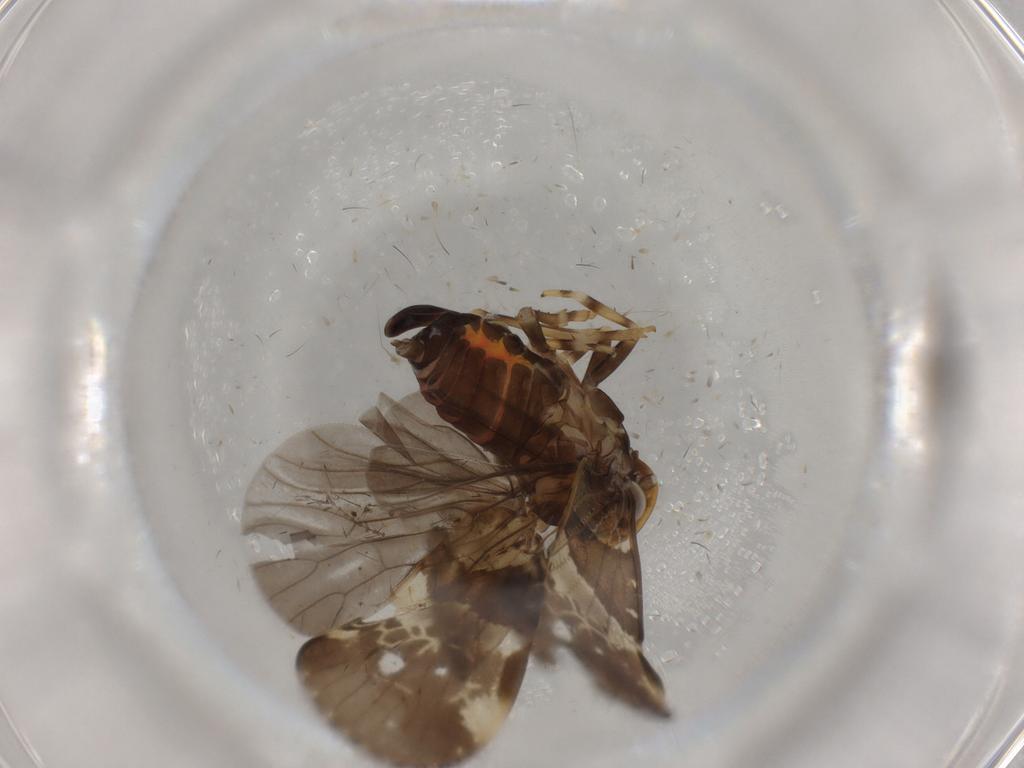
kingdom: Animalia
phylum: Arthropoda
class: Insecta
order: Hemiptera
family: Cixiidae
